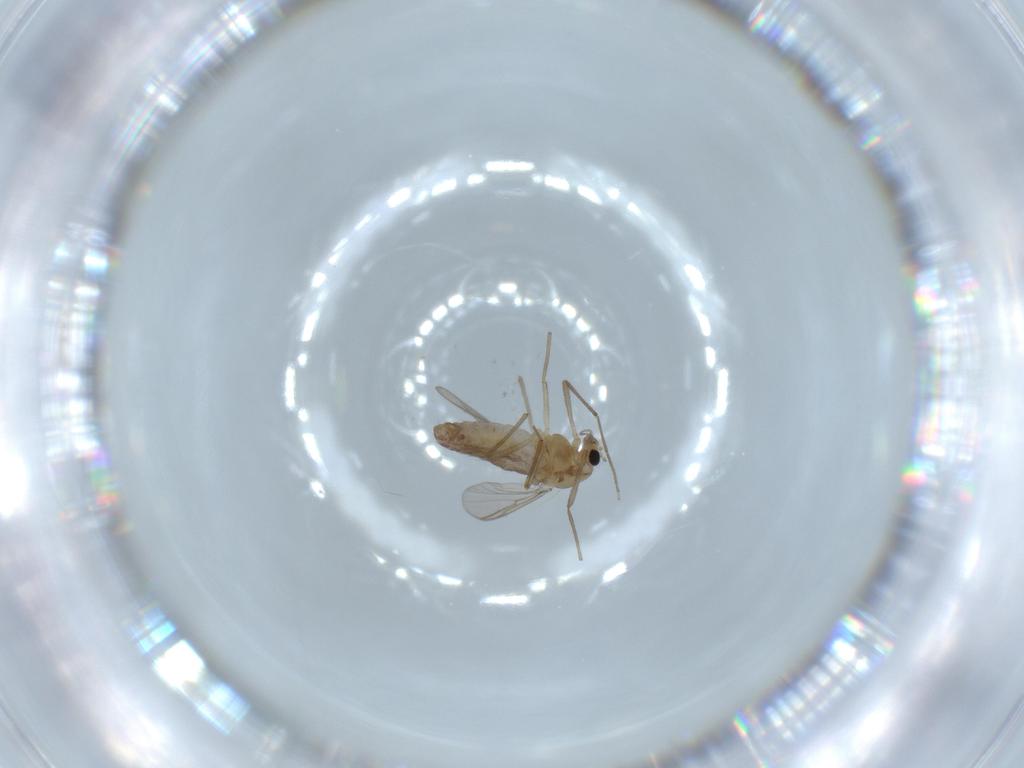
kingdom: Animalia
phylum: Arthropoda
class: Insecta
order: Diptera
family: Chironomidae
